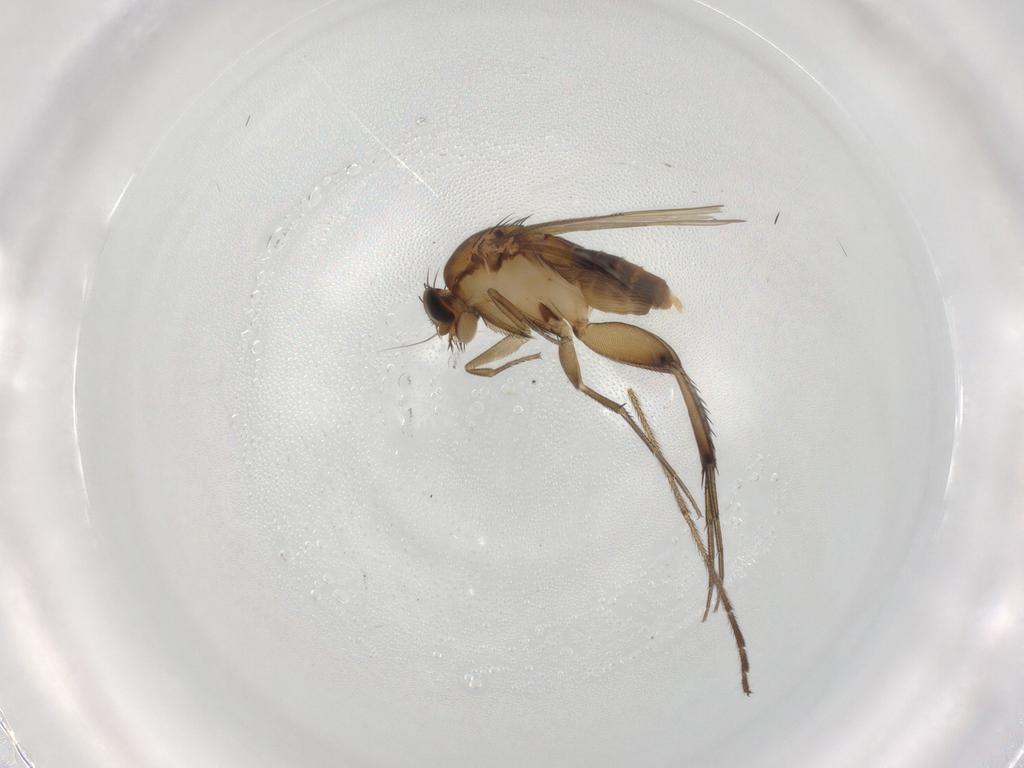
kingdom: Animalia
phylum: Arthropoda
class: Insecta
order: Diptera
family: Phoridae
